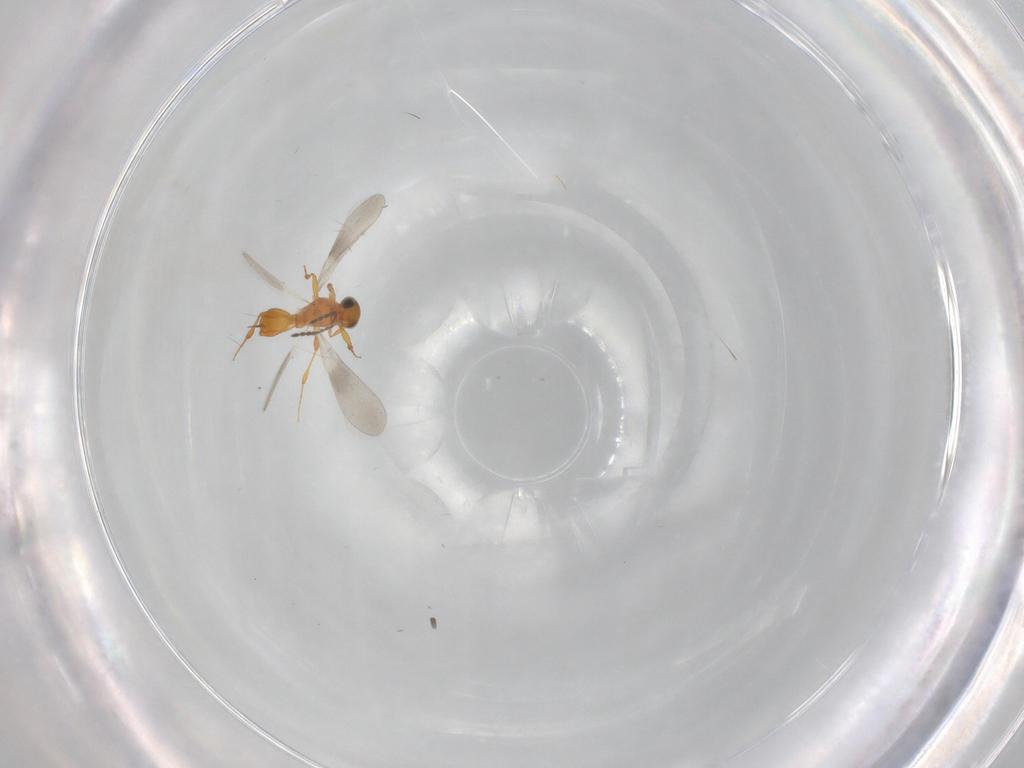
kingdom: Animalia
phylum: Arthropoda
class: Insecta
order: Hymenoptera
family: Platygastridae
